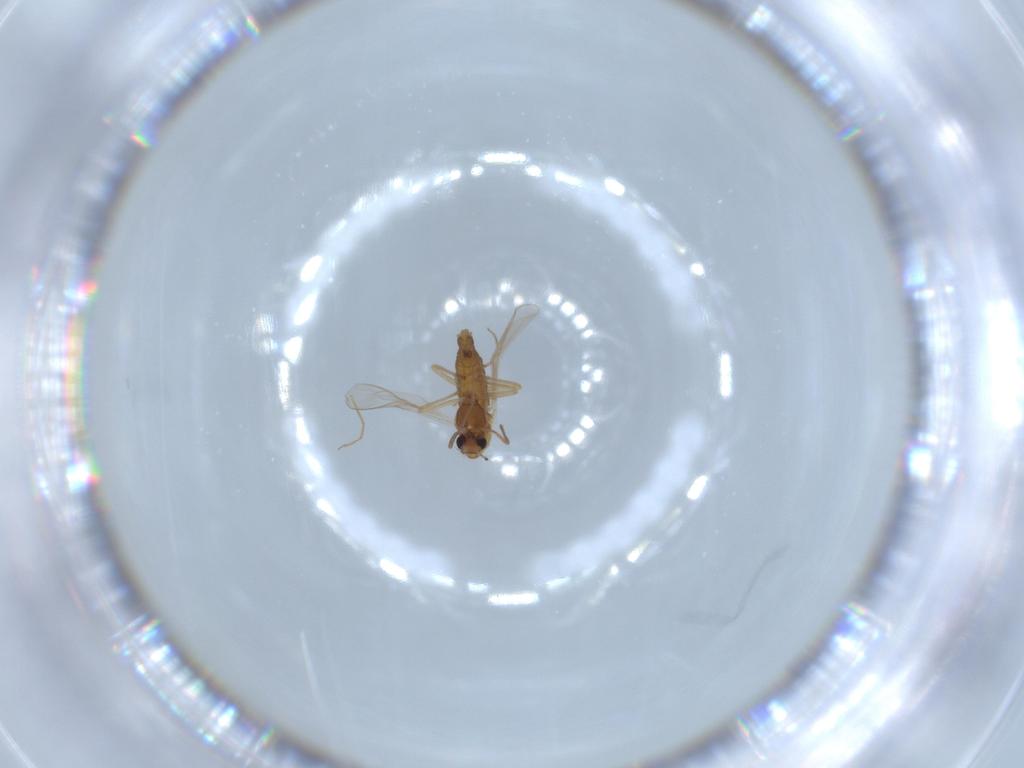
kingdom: Animalia
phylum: Arthropoda
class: Insecta
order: Diptera
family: Chironomidae
